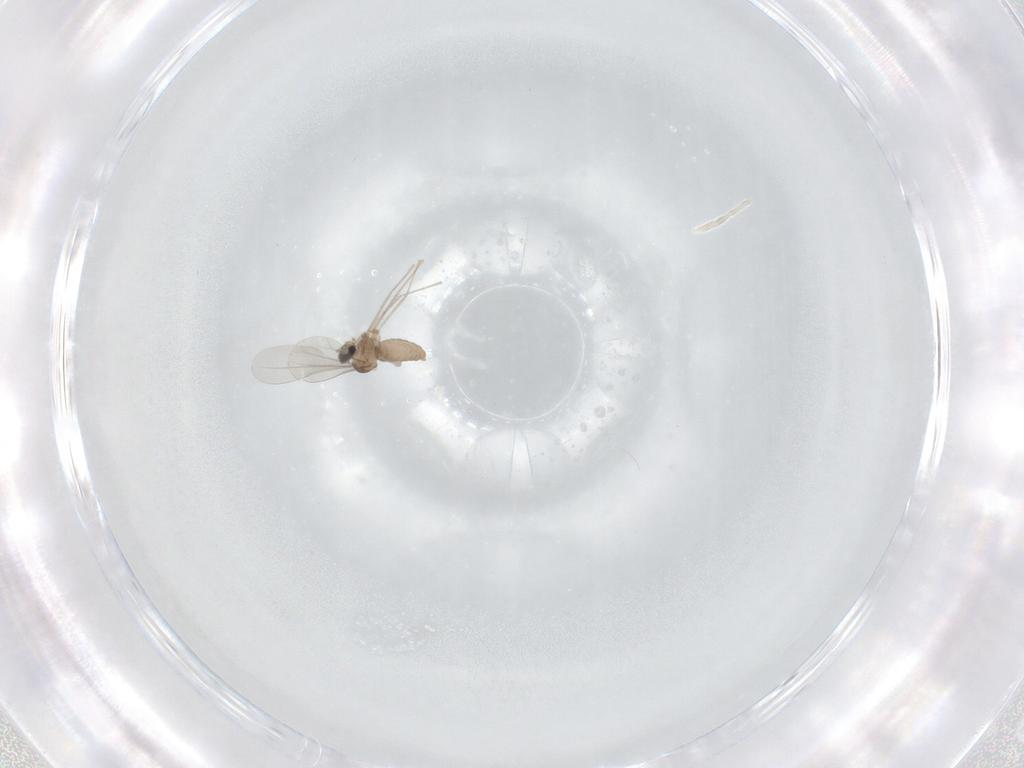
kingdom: Animalia
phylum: Arthropoda
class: Insecta
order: Diptera
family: Cecidomyiidae
